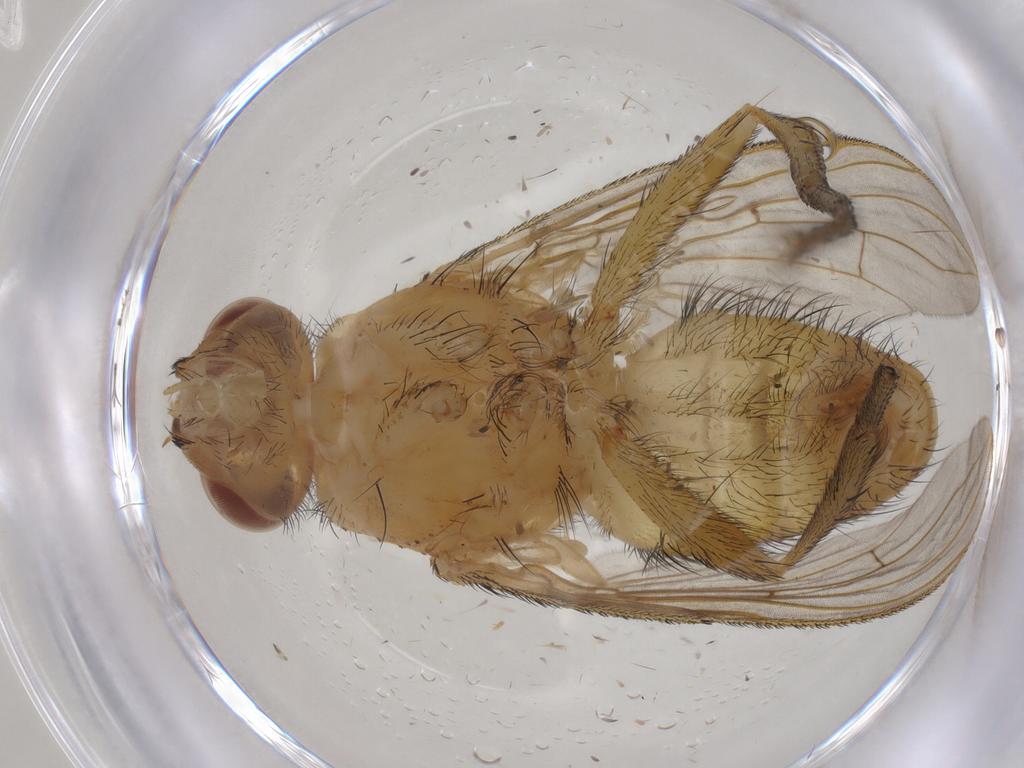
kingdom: Animalia
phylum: Arthropoda
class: Insecta
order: Diptera
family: Tachinidae
